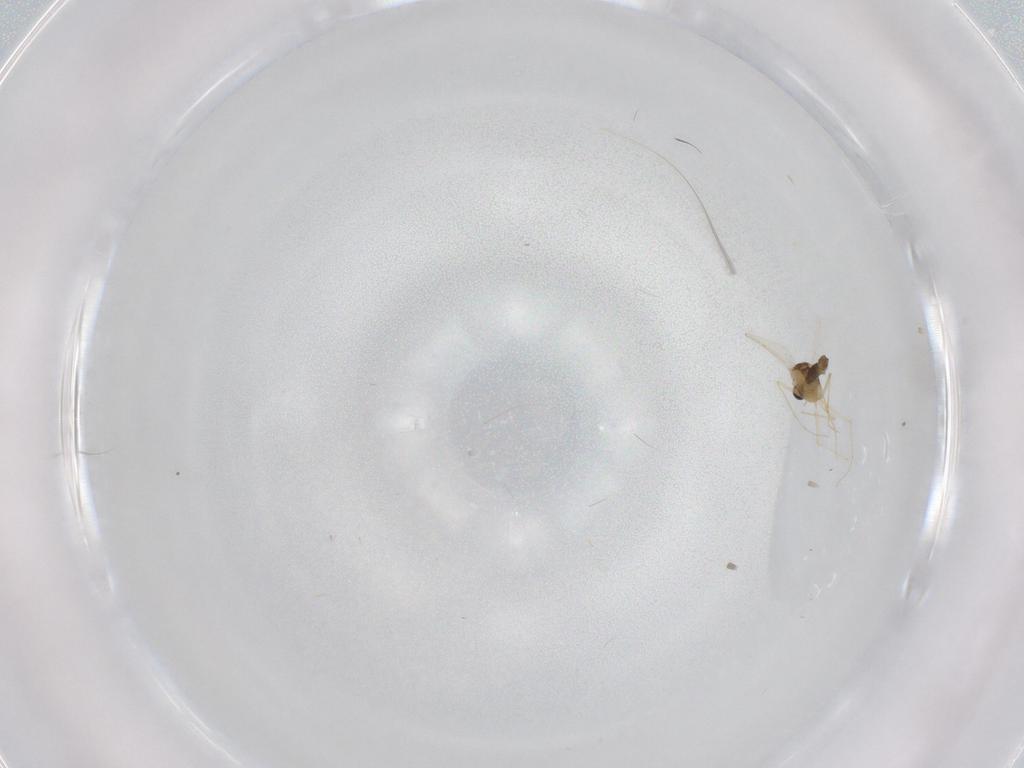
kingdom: Animalia
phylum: Arthropoda
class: Insecta
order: Diptera
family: Chironomidae
